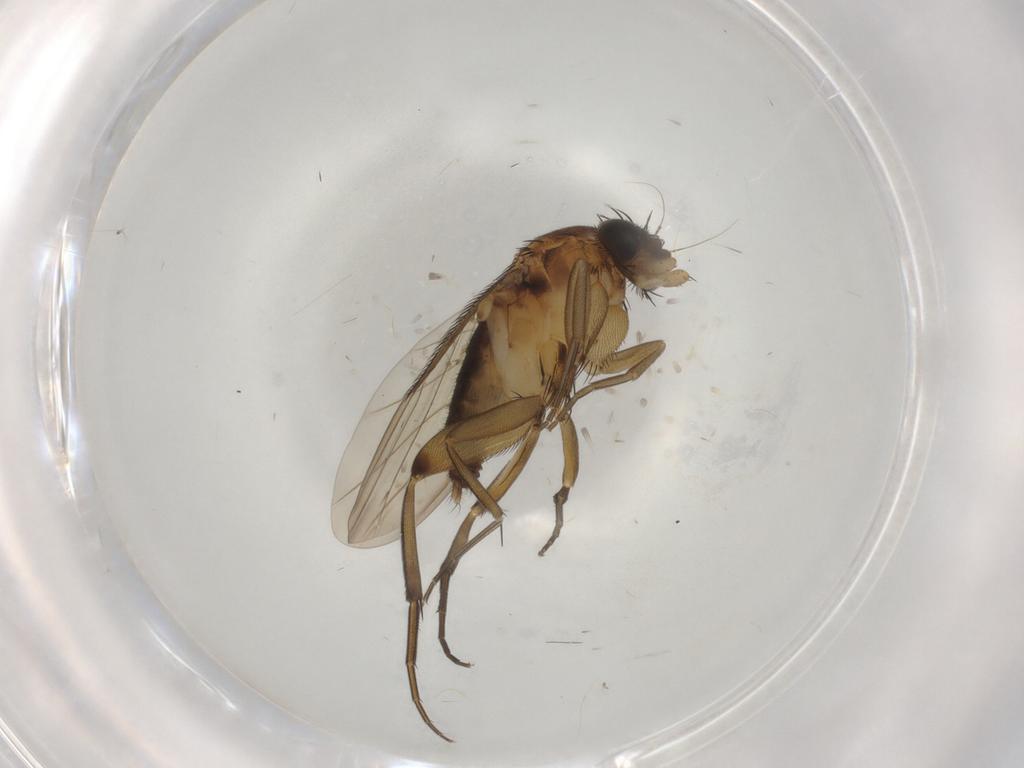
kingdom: Animalia
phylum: Arthropoda
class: Insecta
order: Diptera
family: Phoridae
